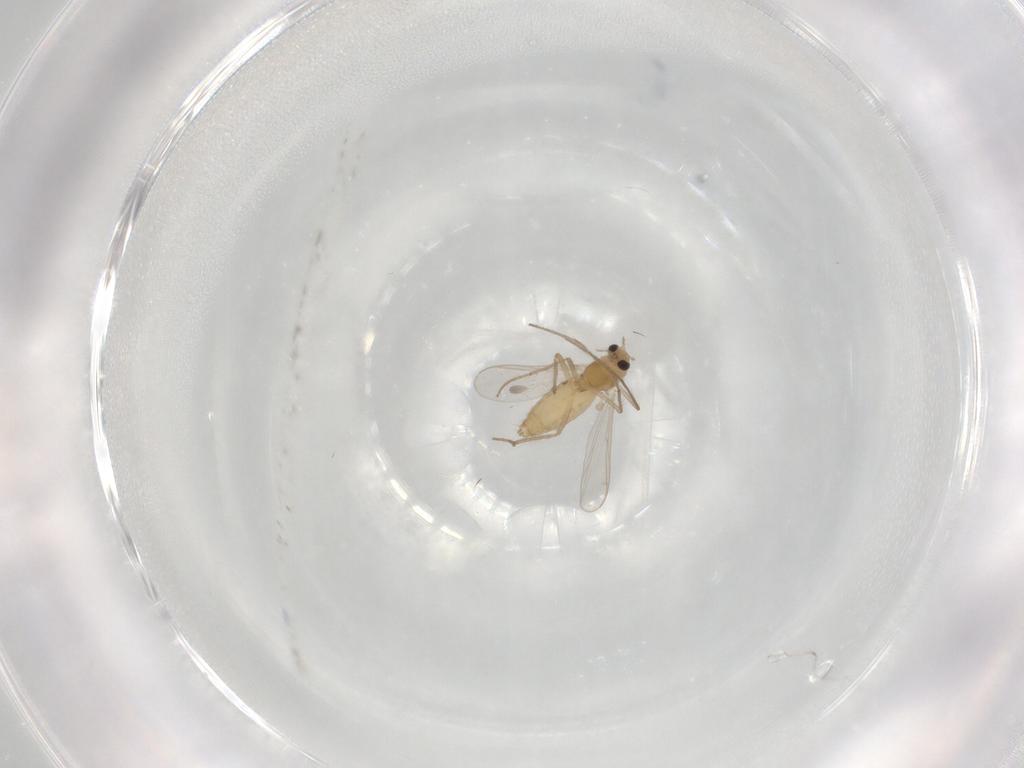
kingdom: Animalia
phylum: Arthropoda
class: Insecta
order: Diptera
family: Chironomidae
